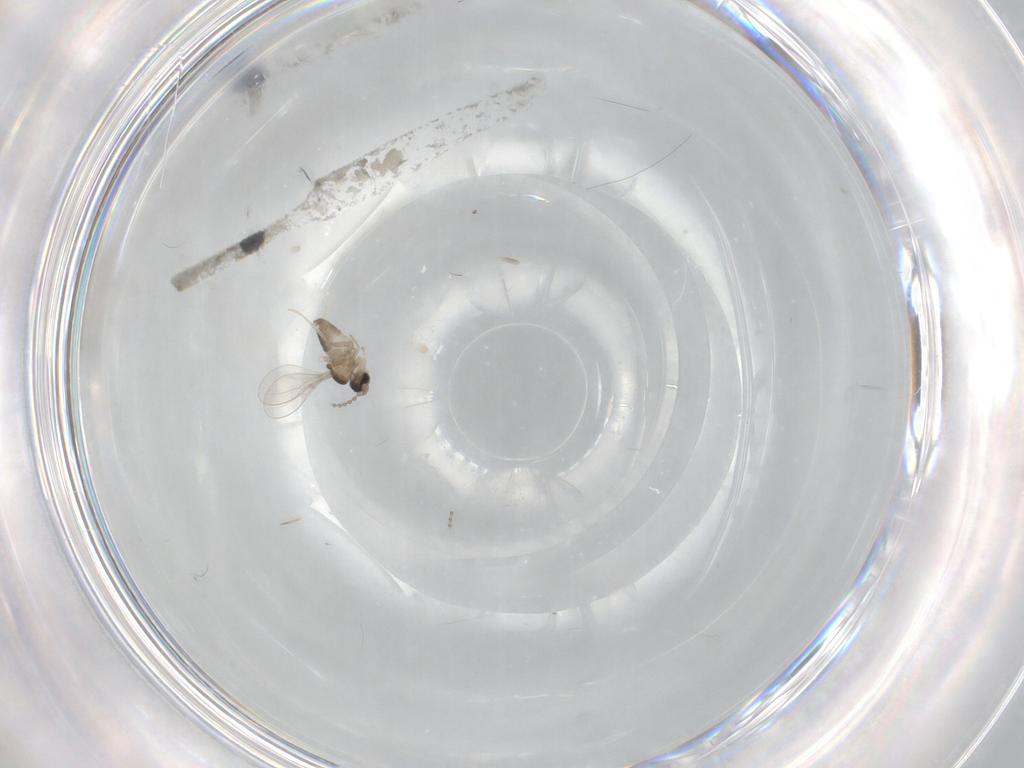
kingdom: Animalia
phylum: Arthropoda
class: Insecta
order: Diptera
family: Cecidomyiidae
